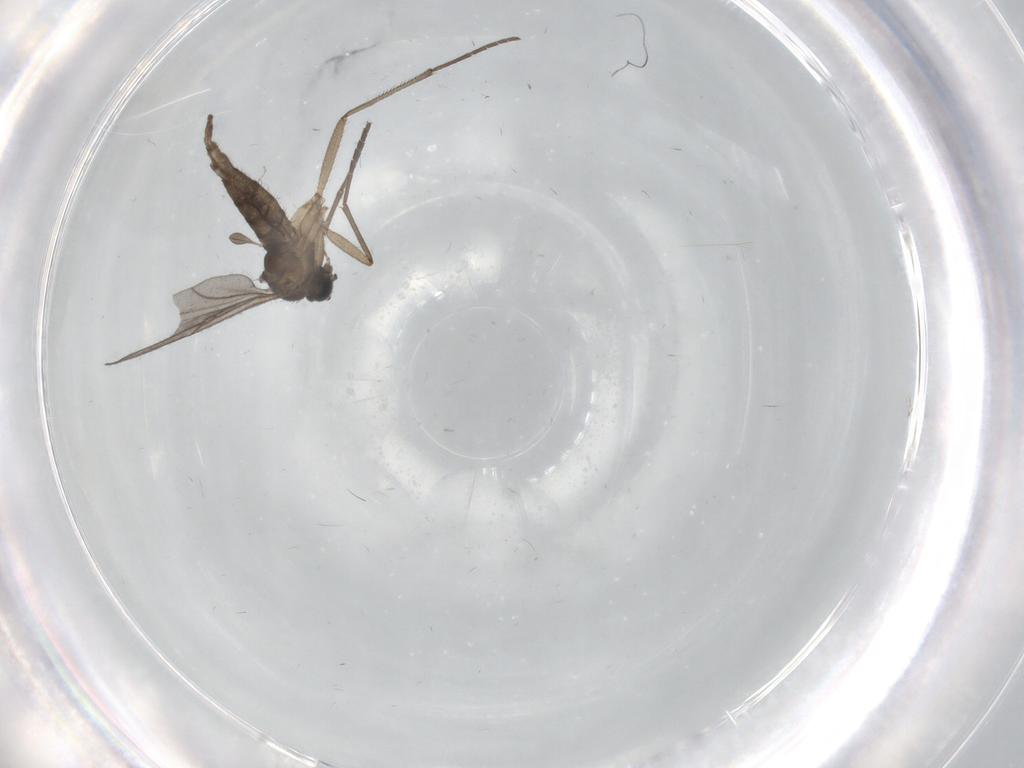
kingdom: Animalia
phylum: Arthropoda
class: Insecta
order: Diptera
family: Sciaridae
